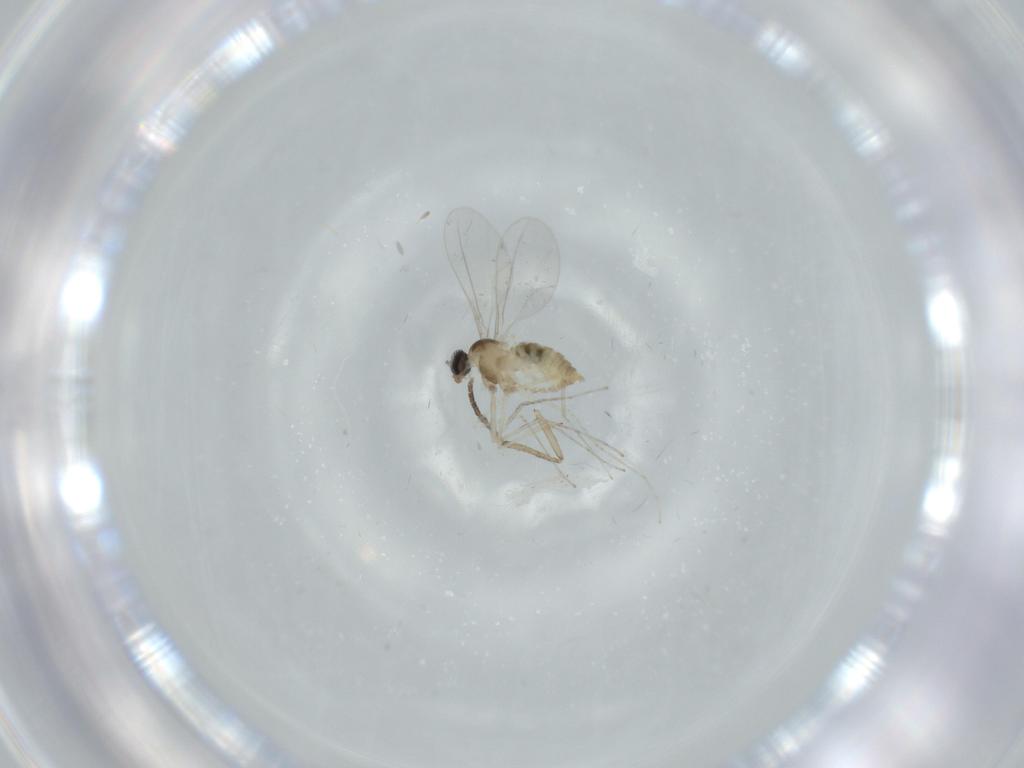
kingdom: Animalia
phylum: Arthropoda
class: Insecta
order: Diptera
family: Cecidomyiidae
